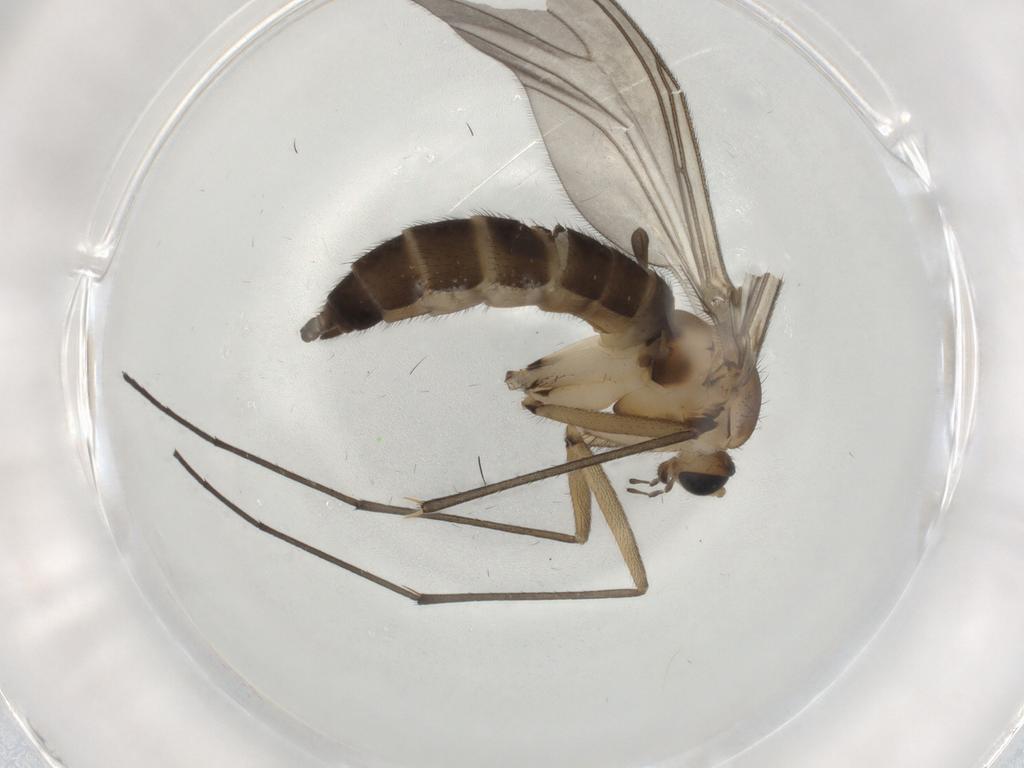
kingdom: Animalia
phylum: Arthropoda
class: Insecta
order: Diptera
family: Sciaridae
